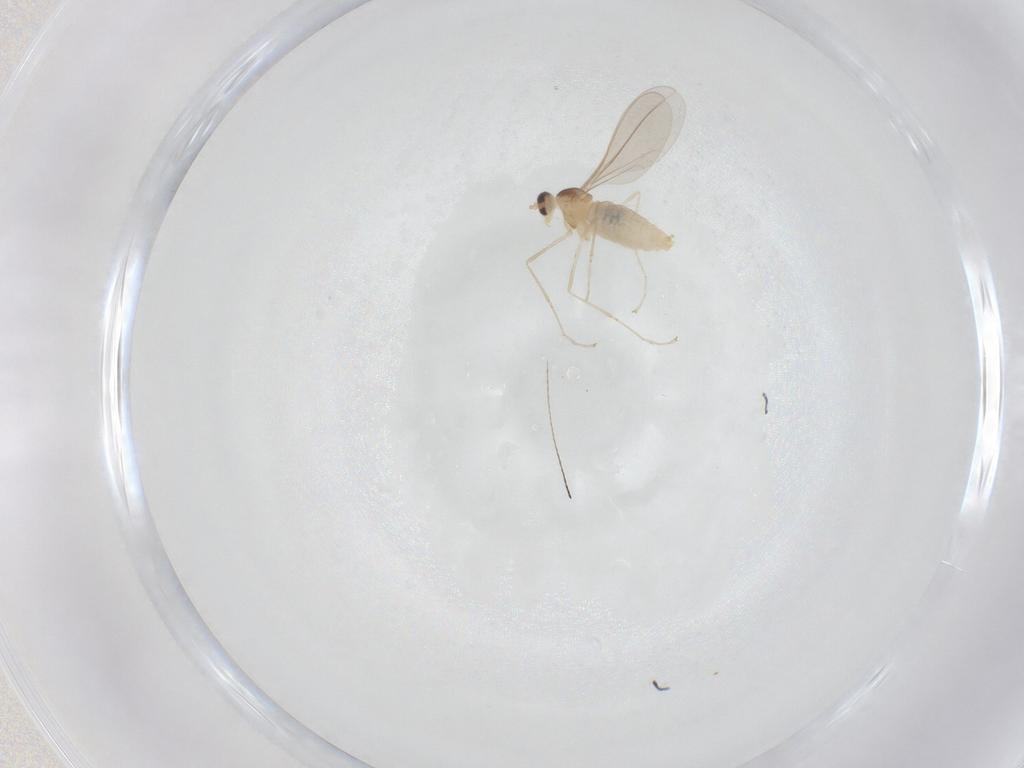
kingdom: Animalia
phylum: Arthropoda
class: Insecta
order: Diptera
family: Cecidomyiidae
